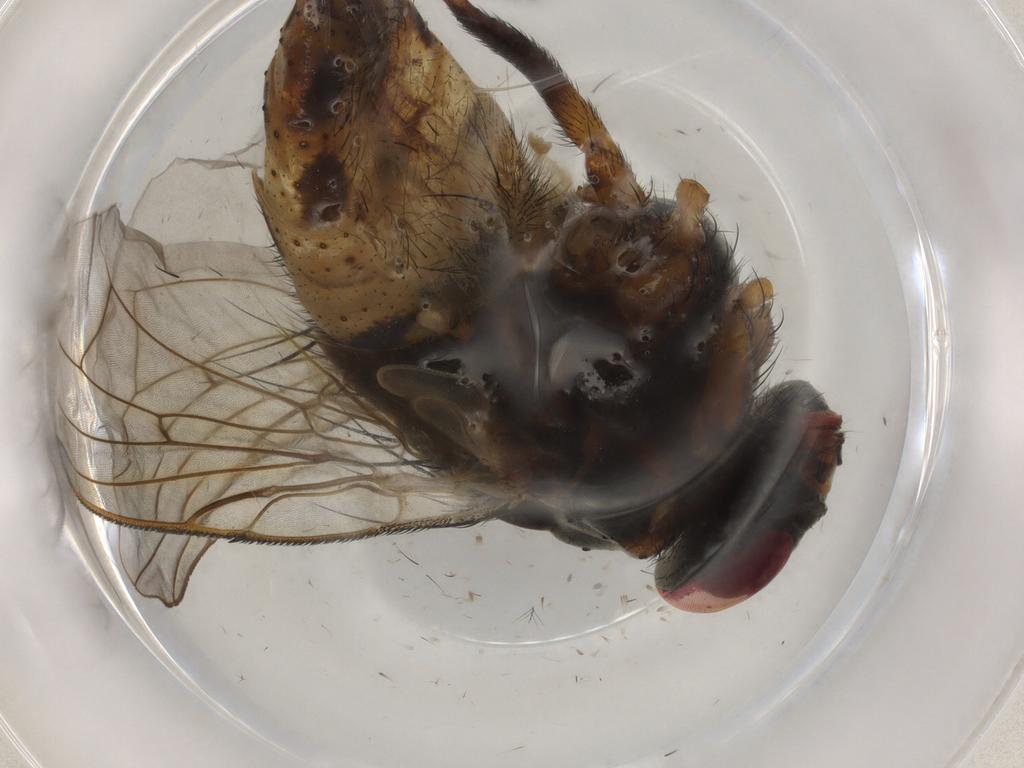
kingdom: Animalia
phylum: Arthropoda
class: Insecta
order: Diptera
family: Muscidae
